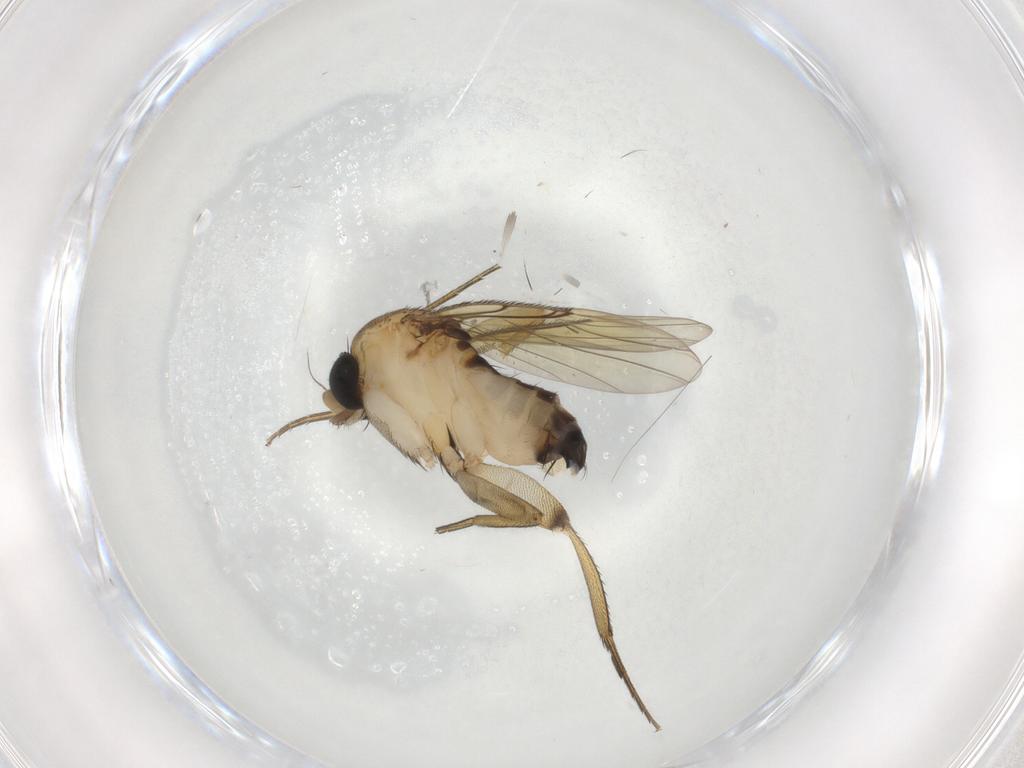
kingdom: Animalia
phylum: Arthropoda
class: Insecta
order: Diptera
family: Phoridae
